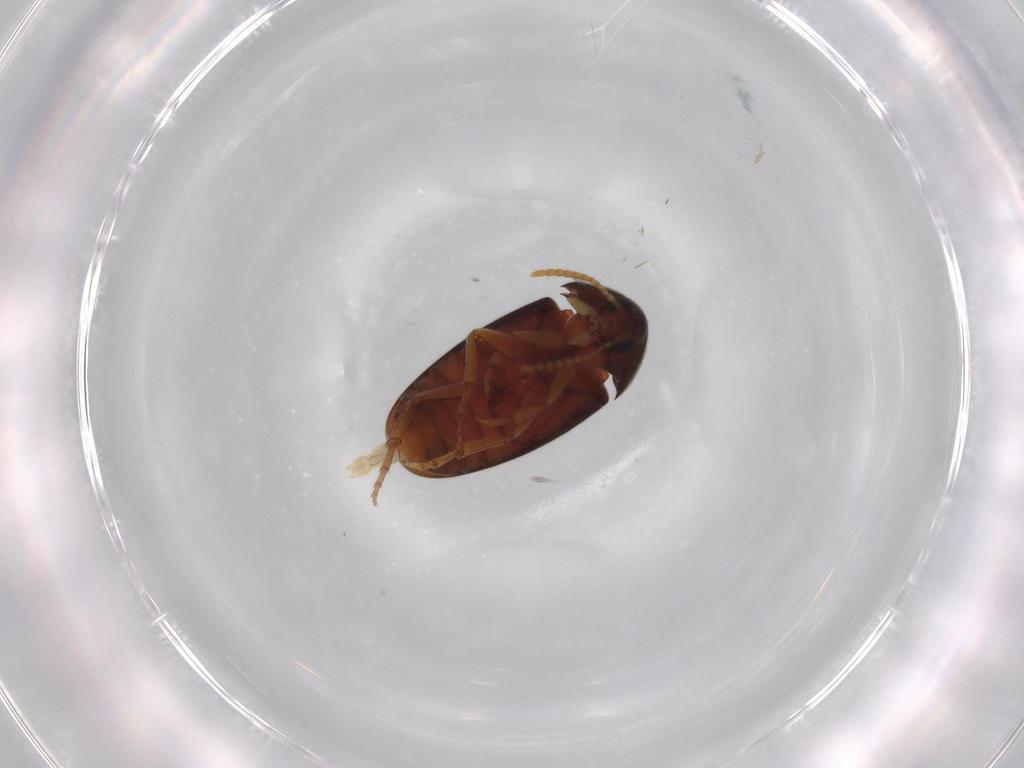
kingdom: Animalia
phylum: Arthropoda
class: Insecta
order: Coleoptera
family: Scraptiidae
